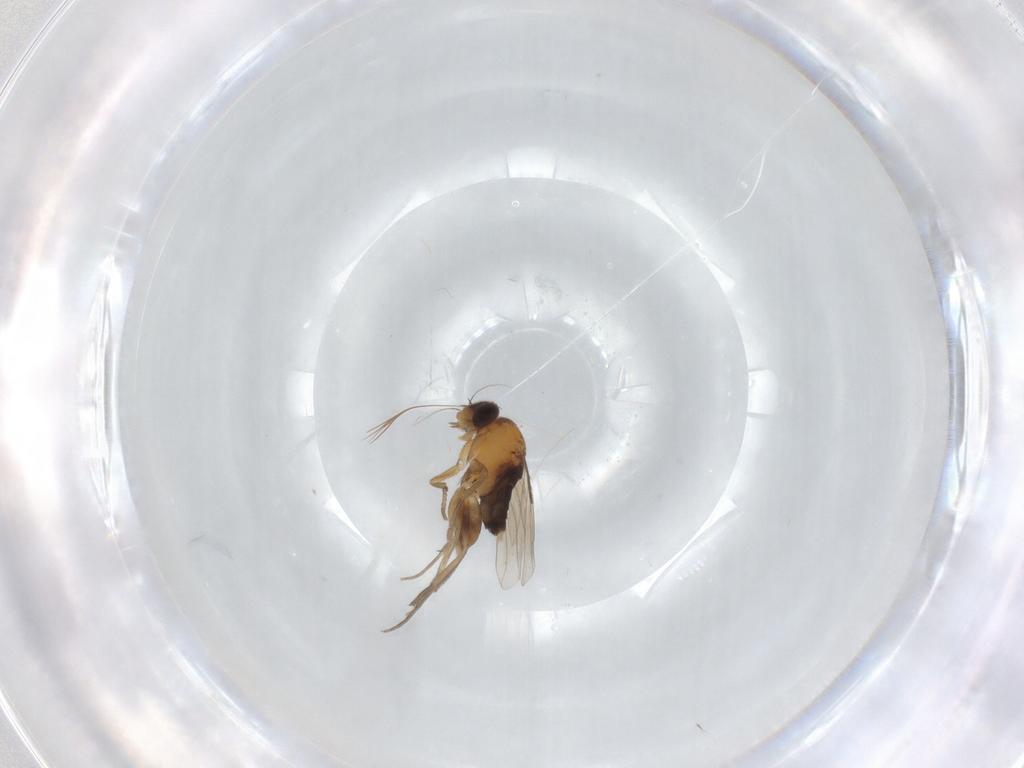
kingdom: Animalia
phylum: Arthropoda
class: Insecta
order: Diptera
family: Phoridae
